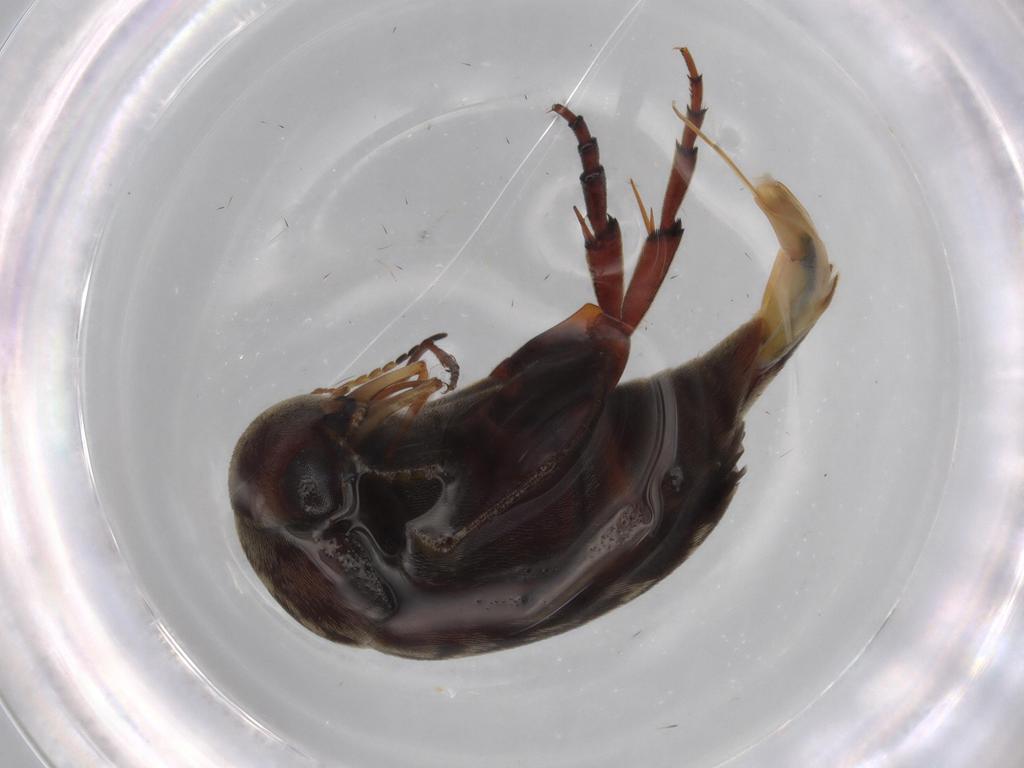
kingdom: Animalia
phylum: Arthropoda
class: Insecta
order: Coleoptera
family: Mordellidae
